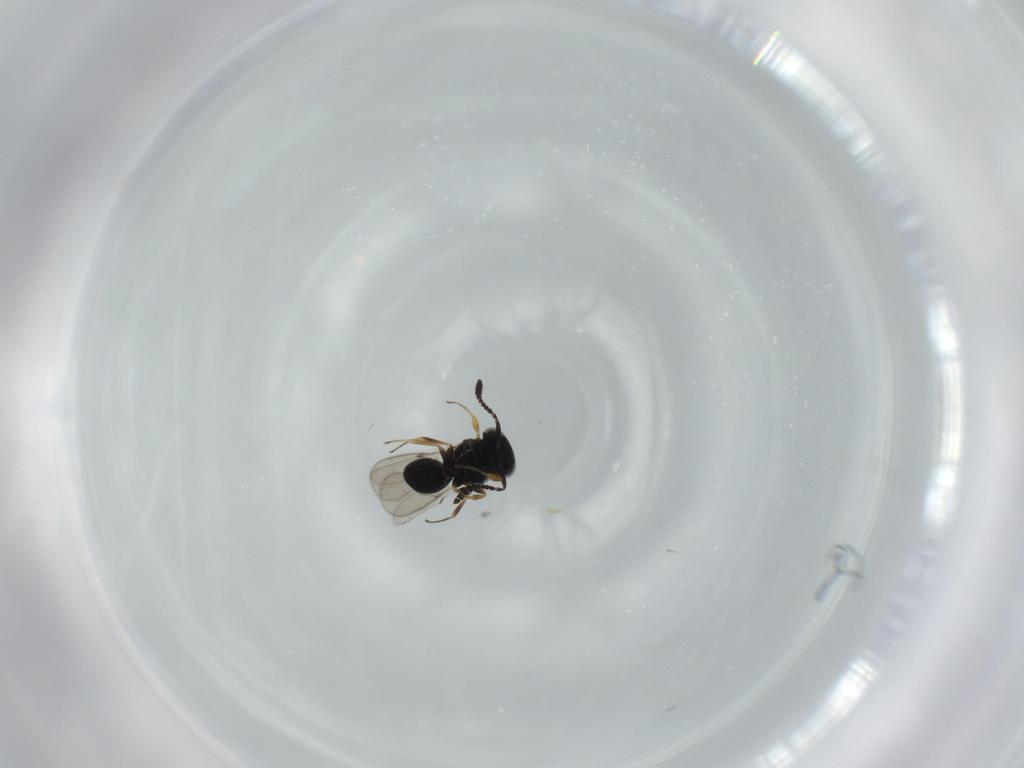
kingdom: Animalia
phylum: Arthropoda
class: Insecta
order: Hymenoptera
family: Scelionidae
